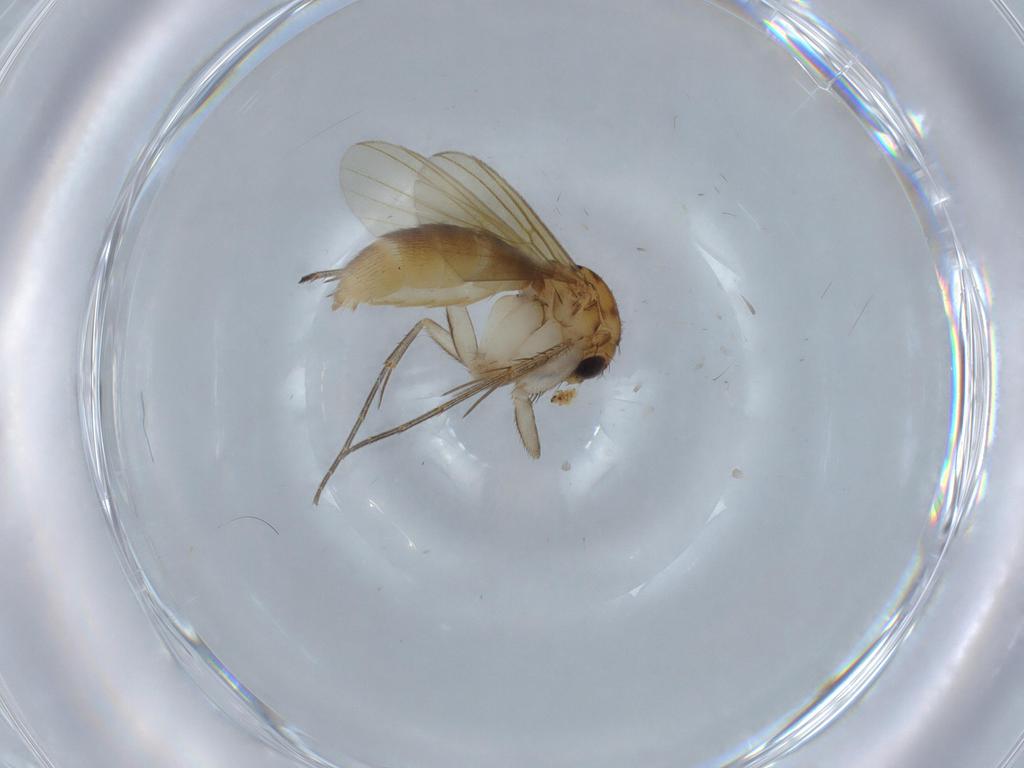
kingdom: Animalia
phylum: Arthropoda
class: Insecta
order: Diptera
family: Mycetophilidae
